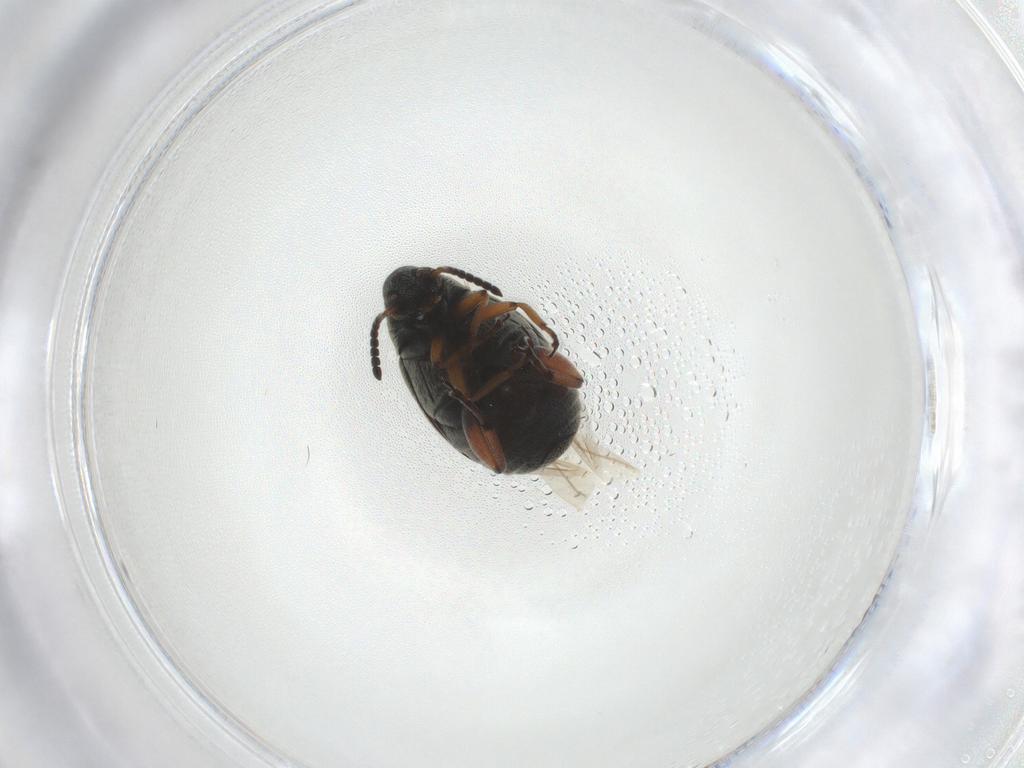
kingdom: Animalia
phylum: Arthropoda
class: Insecta
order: Coleoptera
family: Chrysomelidae
